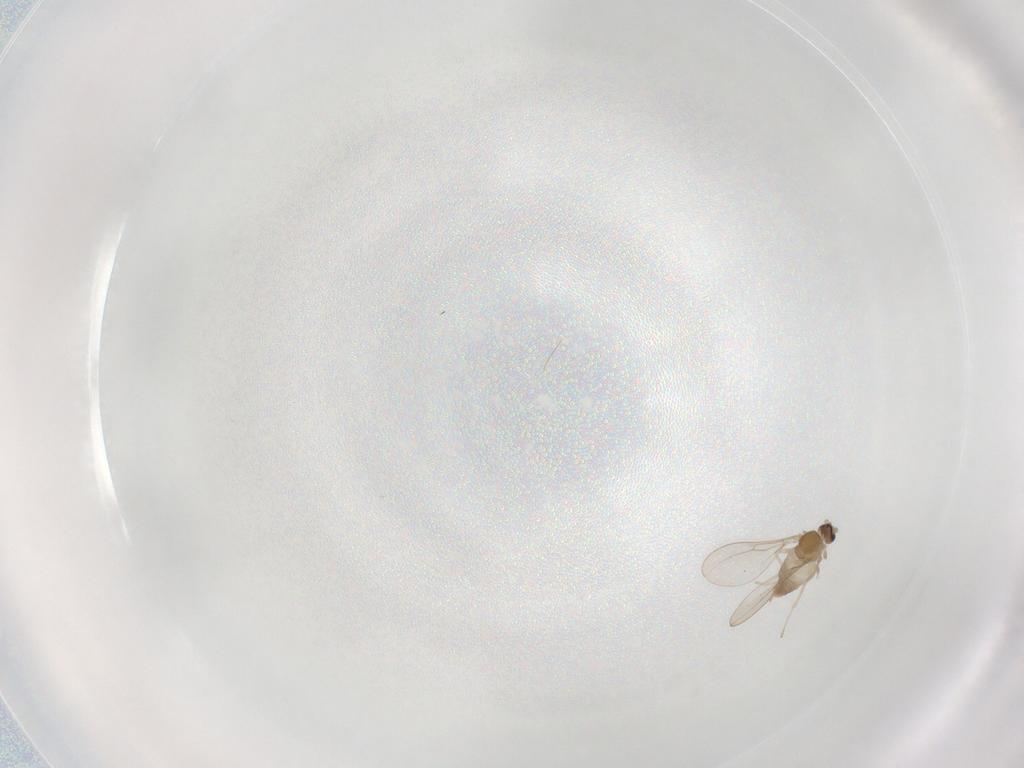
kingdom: Animalia
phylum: Arthropoda
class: Insecta
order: Diptera
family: Cecidomyiidae
